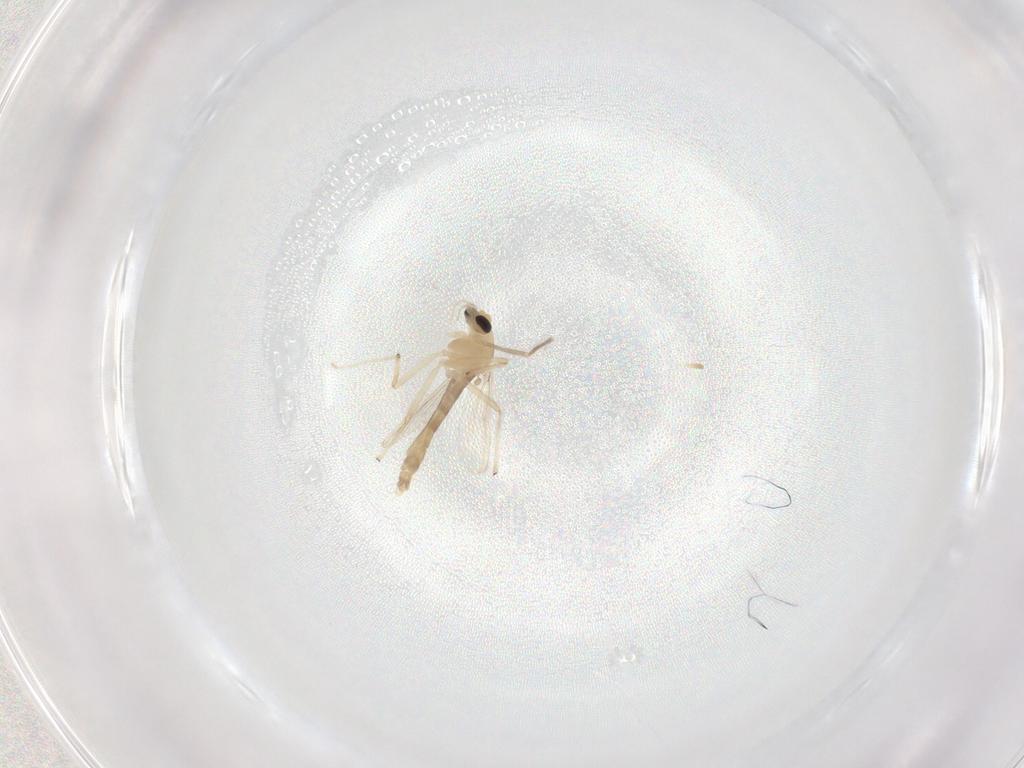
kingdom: Animalia
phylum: Arthropoda
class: Insecta
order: Diptera
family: Chironomidae
